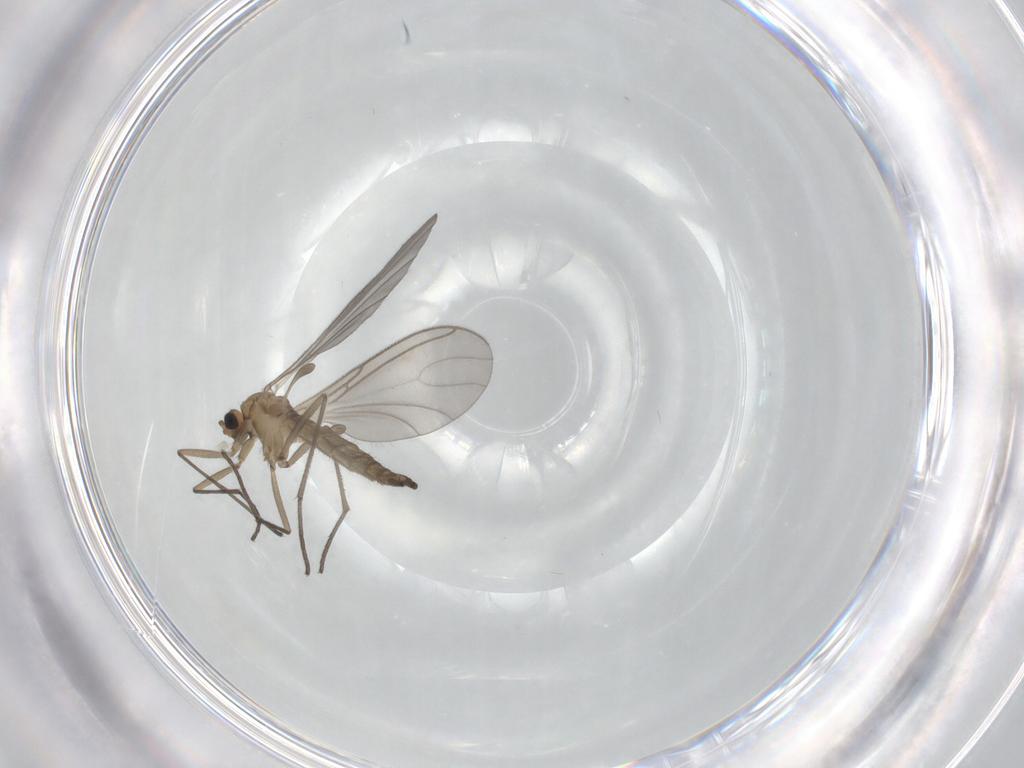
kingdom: Animalia
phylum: Arthropoda
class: Insecta
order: Diptera
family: Sciaridae
